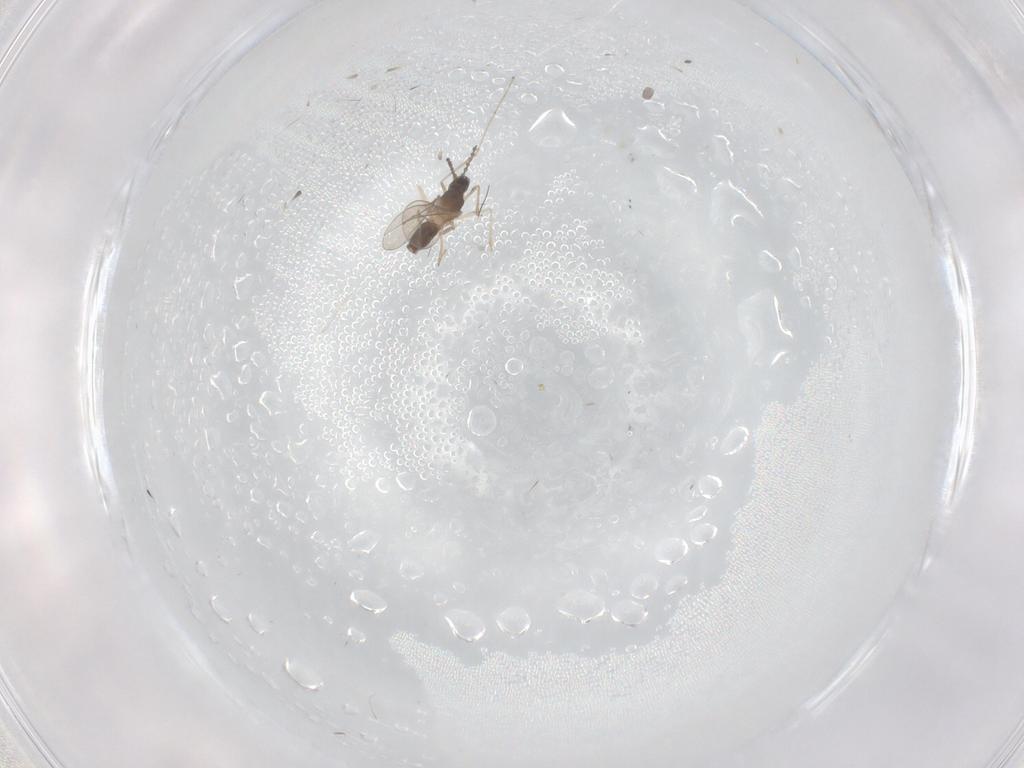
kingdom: Animalia
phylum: Arthropoda
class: Insecta
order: Diptera
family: Cecidomyiidae
